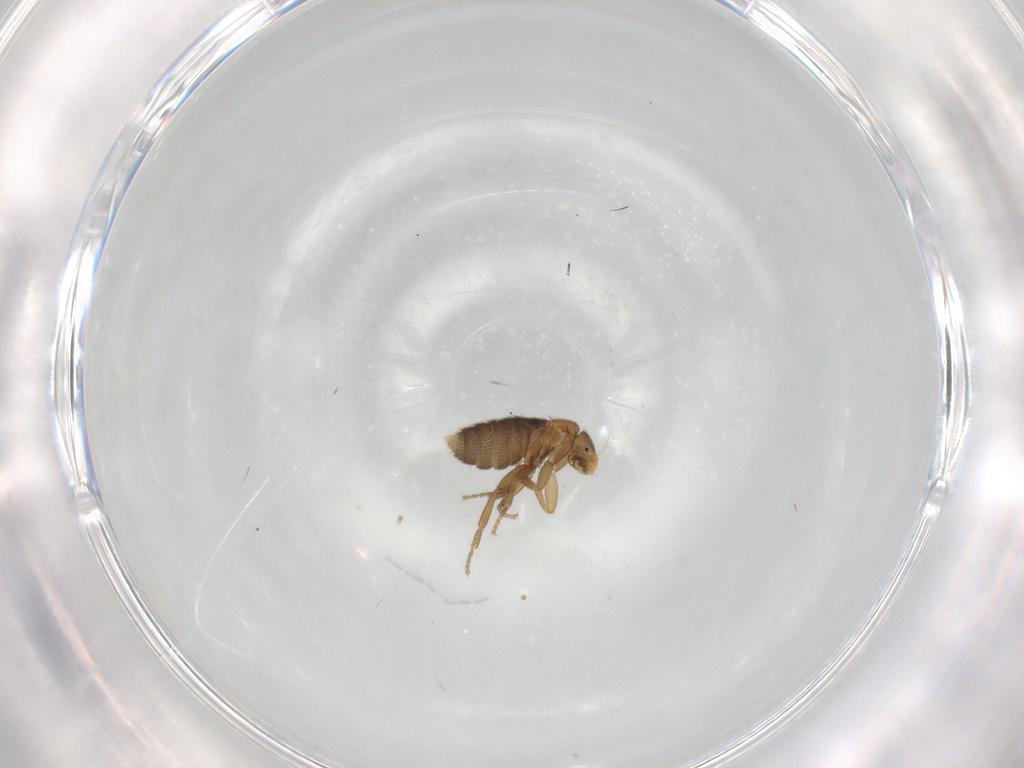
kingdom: Animalia
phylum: Arthropoda
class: Insecta
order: Diptera
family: Phoridae
